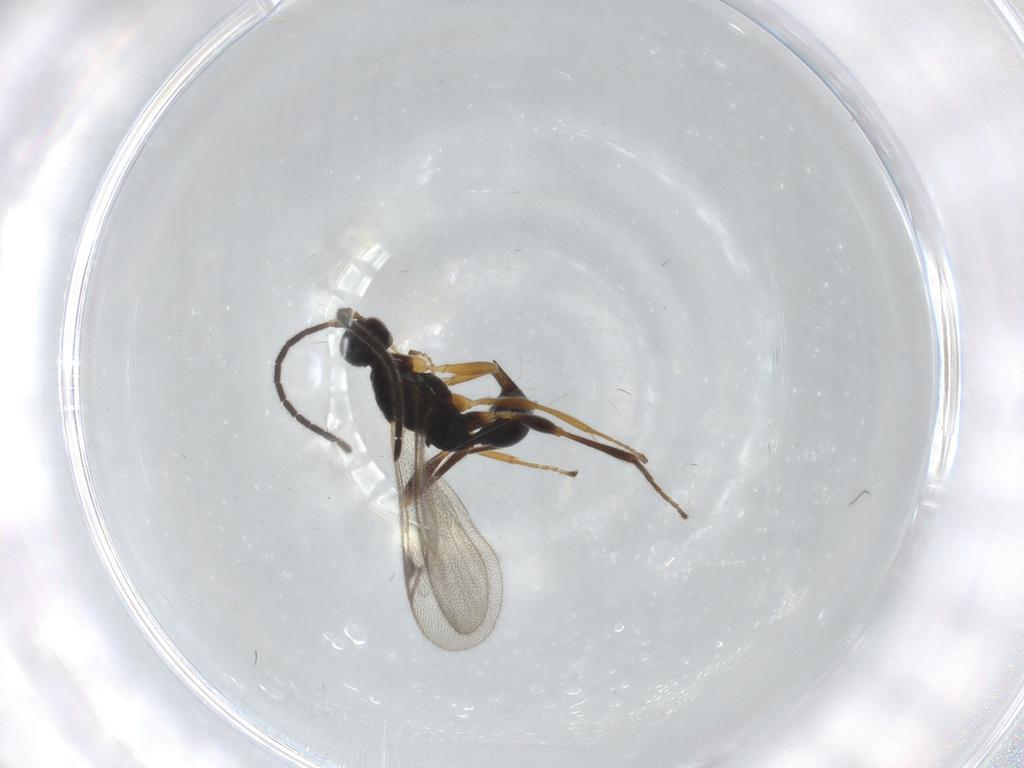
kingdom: Animalia
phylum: Arthropoda
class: Insecta
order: Hymenoptera
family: Proctotrupidae
